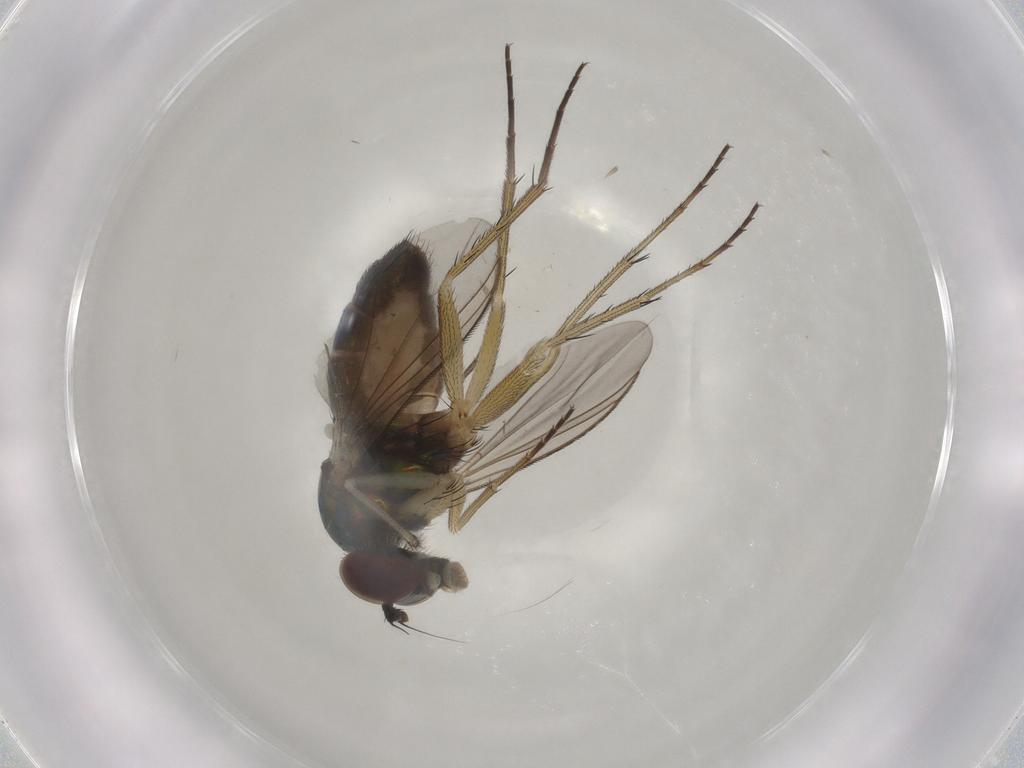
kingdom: Animalia
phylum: Arthropoda
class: Insecta
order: Diptera
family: Dolichopodidae
